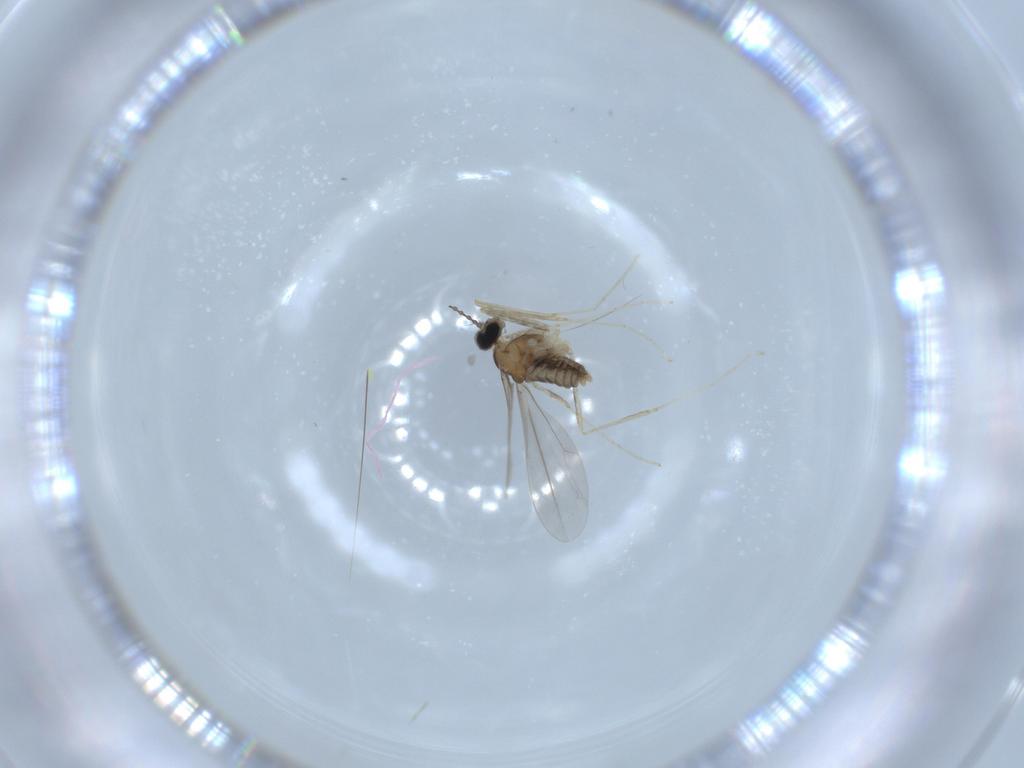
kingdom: Animalia
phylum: Arthropoda
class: Insecta
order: Diptera
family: Cecidomyiidae
